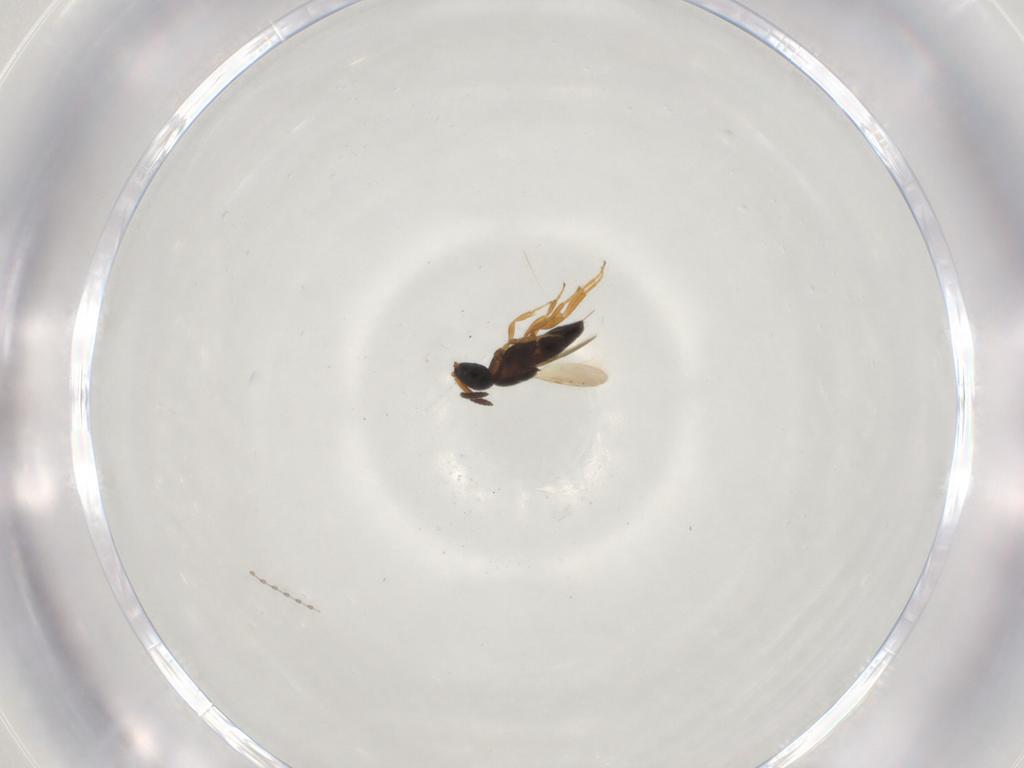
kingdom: Animalia
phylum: Arthropoda
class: Insecta
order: Hymenoptera
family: Scelionidae
